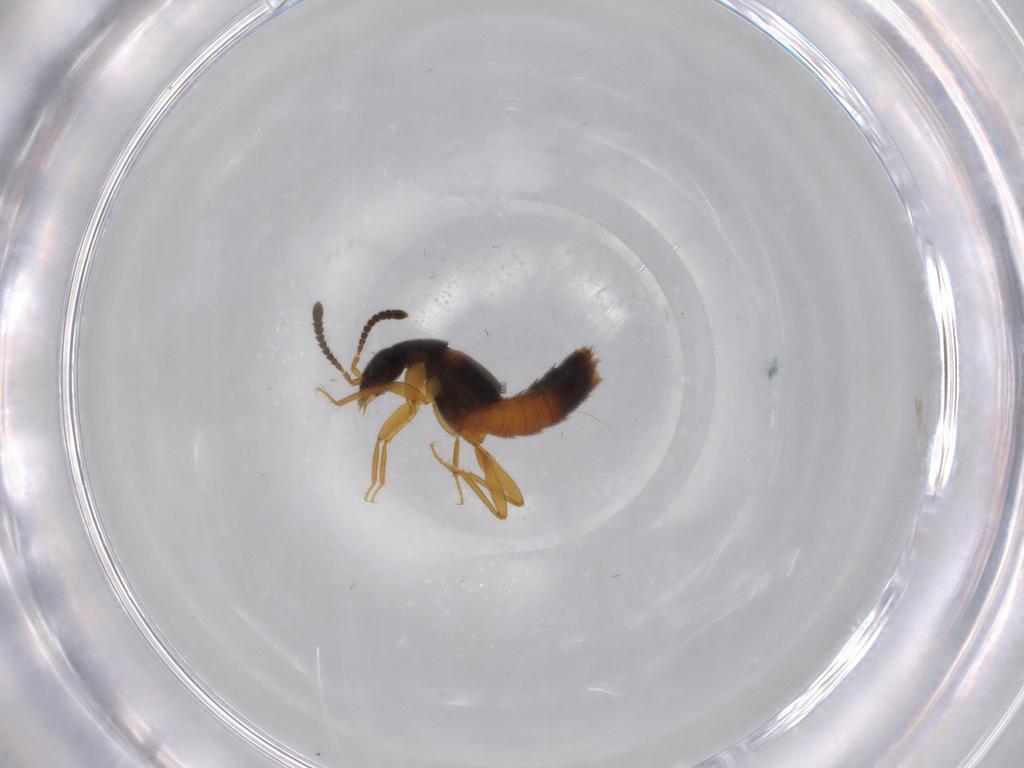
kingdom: Animalia
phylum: Arthropoda
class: Insecta
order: Coleoptera
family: Staphylinidae
